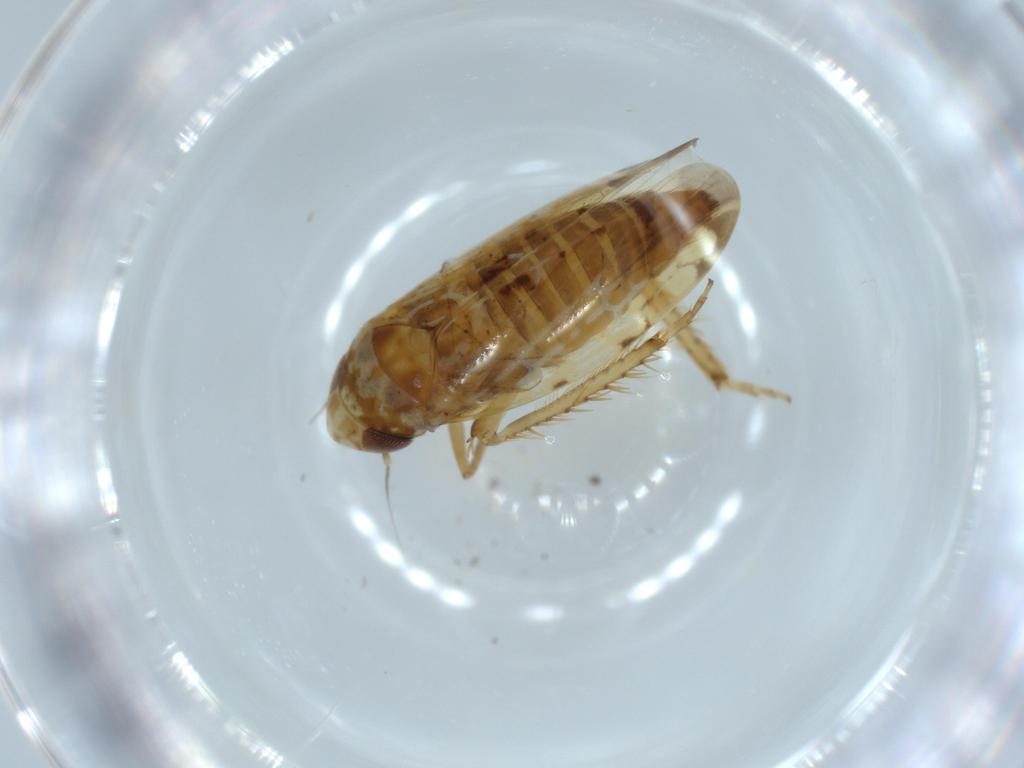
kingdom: Animalia
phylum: Arthropoda
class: Insecta
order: Hemiptera
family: Cicadellidae
